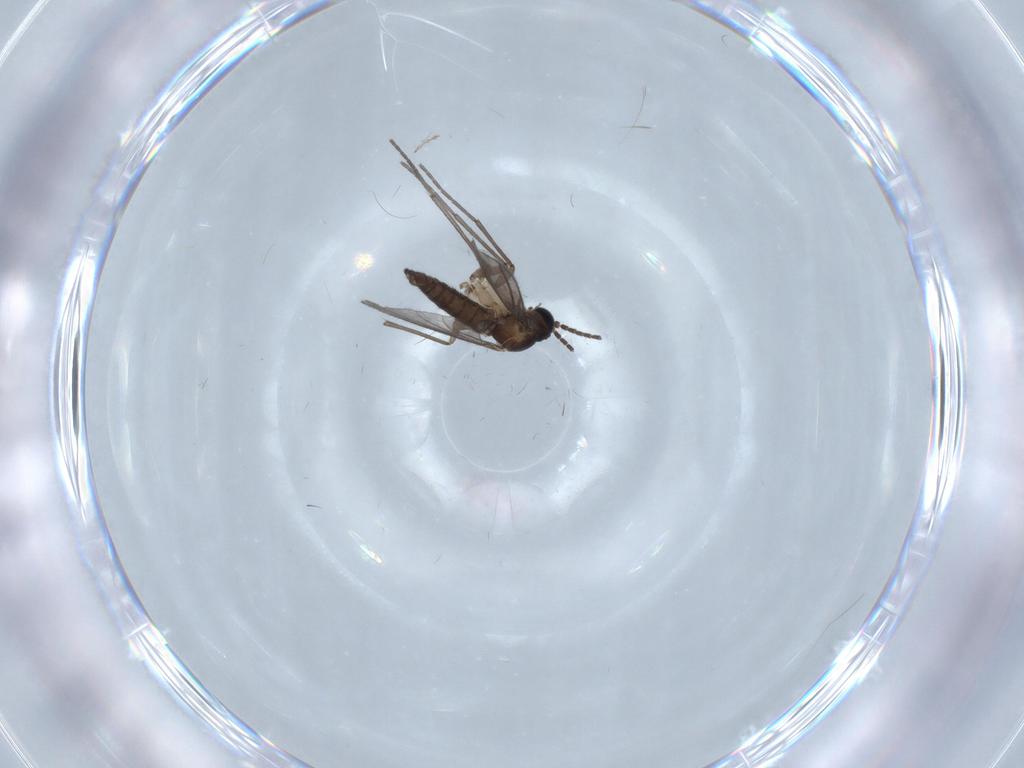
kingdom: Animalia
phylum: Arthropoda
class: Insecta
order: Diptera
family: Sciaridae
